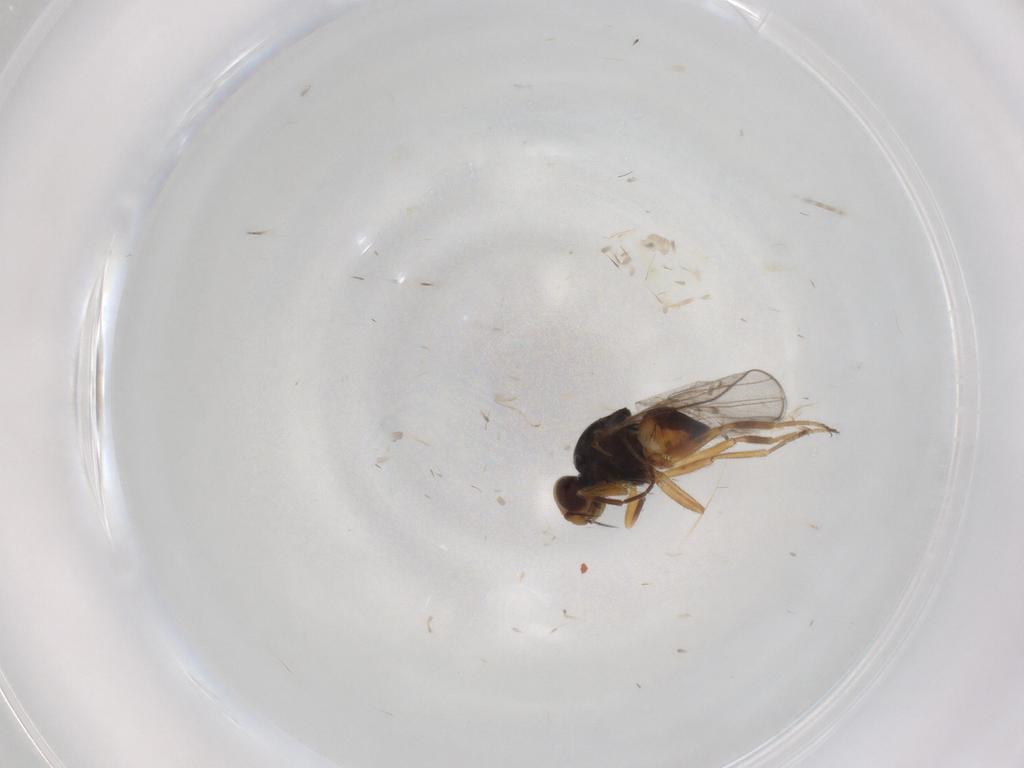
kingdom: Animalia
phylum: Arthropoda
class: Insecta
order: Diptera
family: Chloropidae
